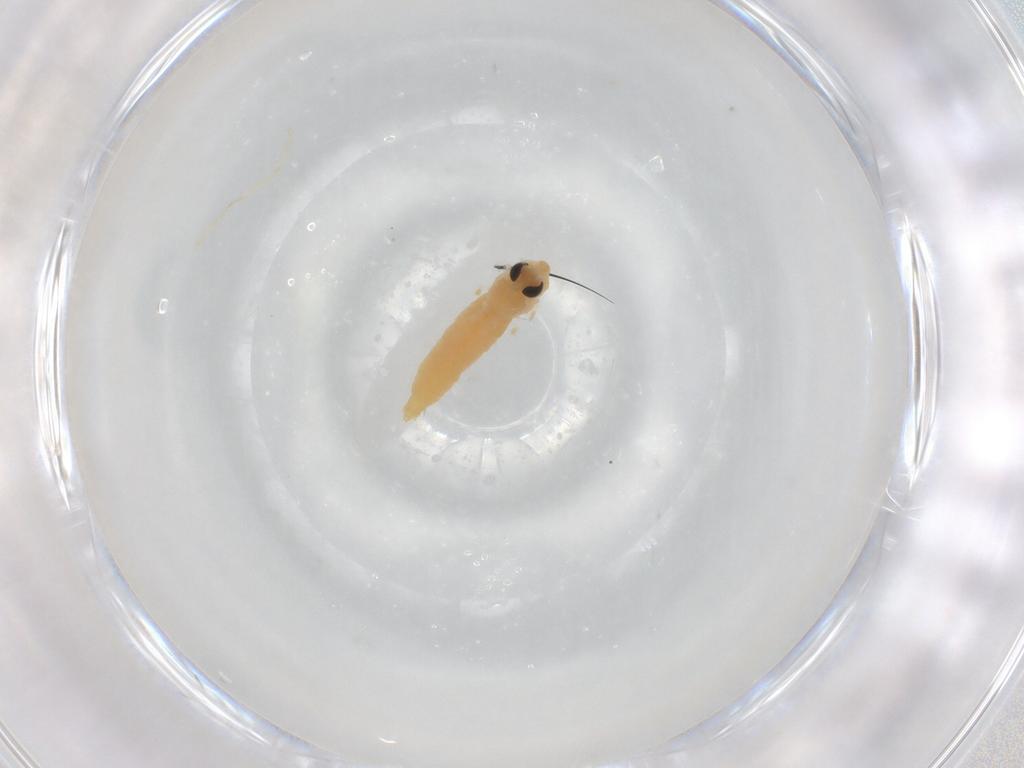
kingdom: Animalia
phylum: Arthropoda
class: Insecta
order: Diptera
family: Chironomidae
